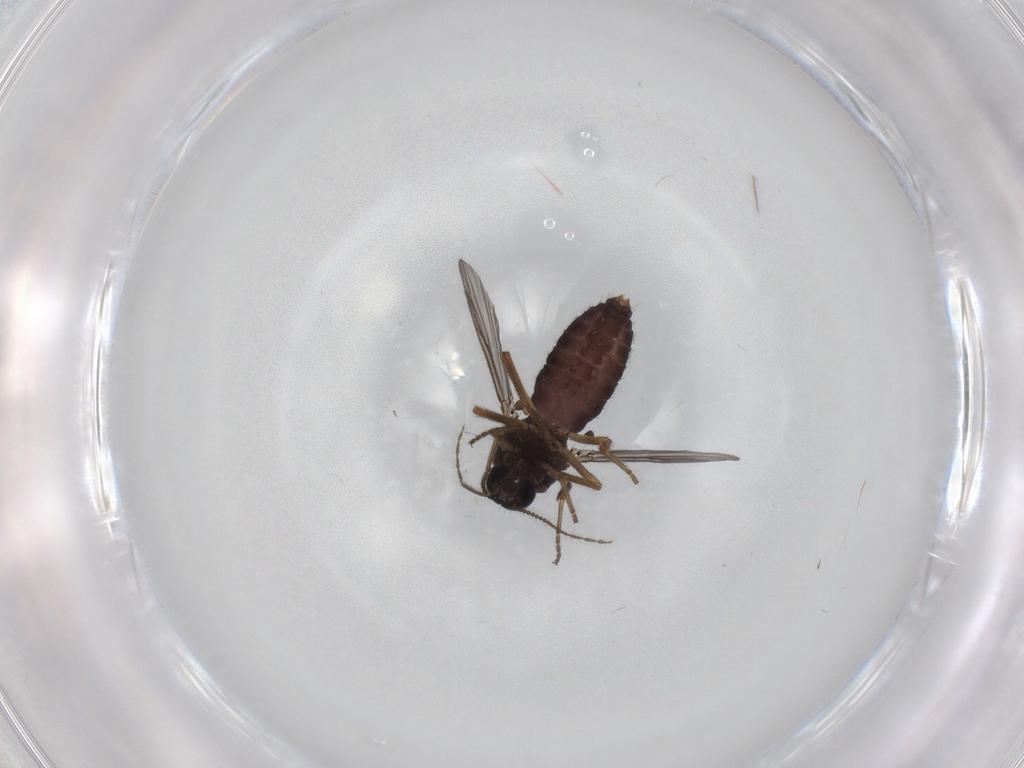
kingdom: Animalia
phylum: Arthropoda
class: Insecta
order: Diptera
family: Ceratopogonidae
